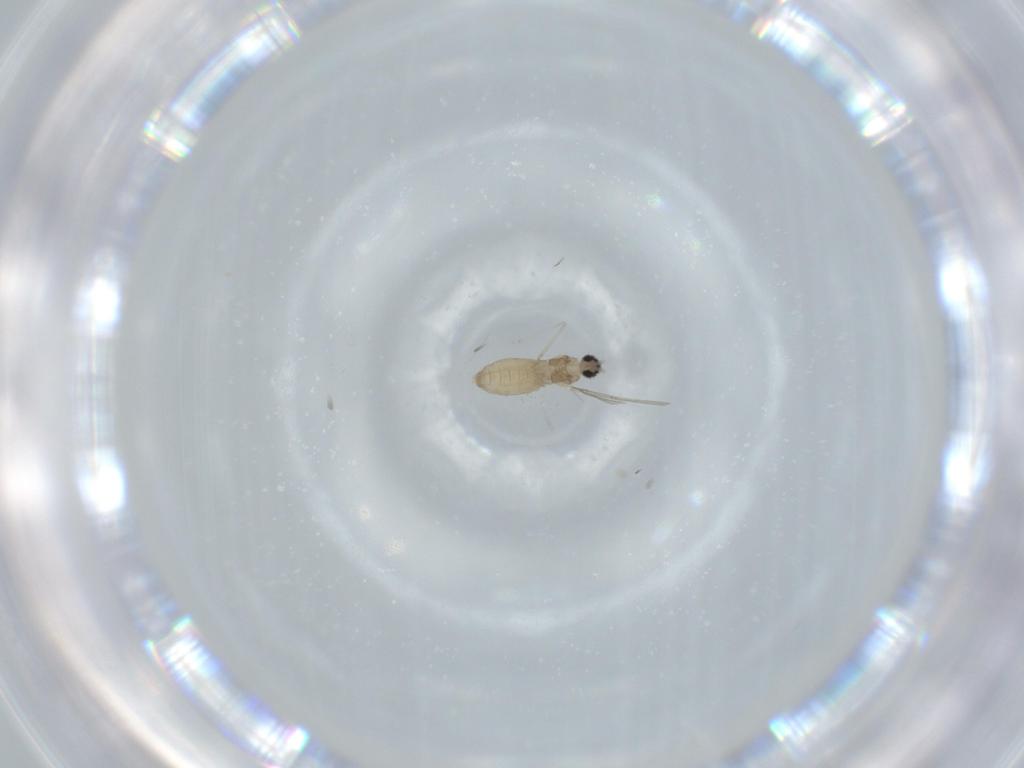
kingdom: Animalia
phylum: Arthropoda
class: Insecta
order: Diptera
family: Cecidomyiidae
